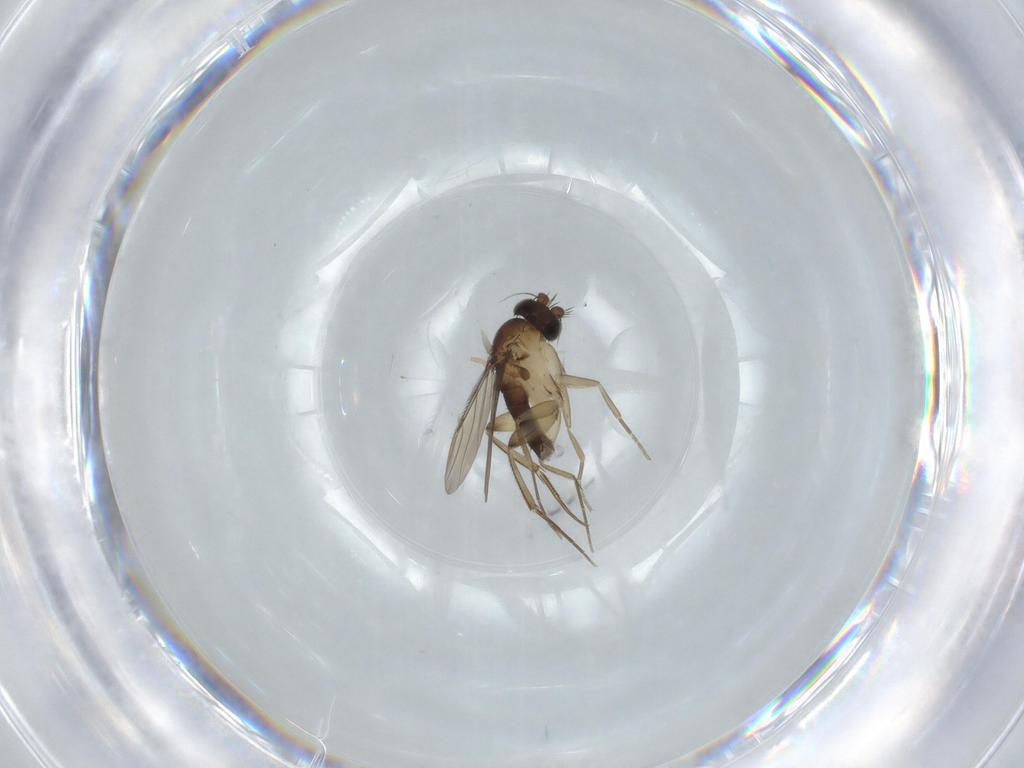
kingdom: Animalia
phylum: Arthropoda
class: Insecta
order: Diptera
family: Phoridae
